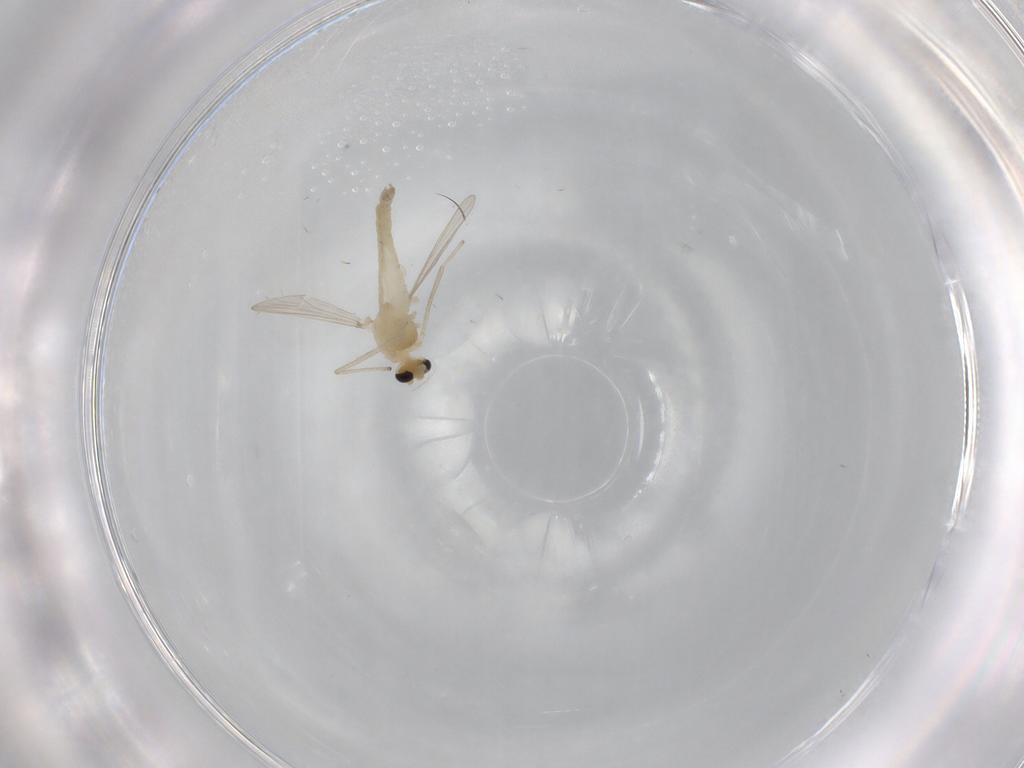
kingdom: Animalia
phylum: Arthropoda
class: Insecta
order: Diptera
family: Chironomidae
